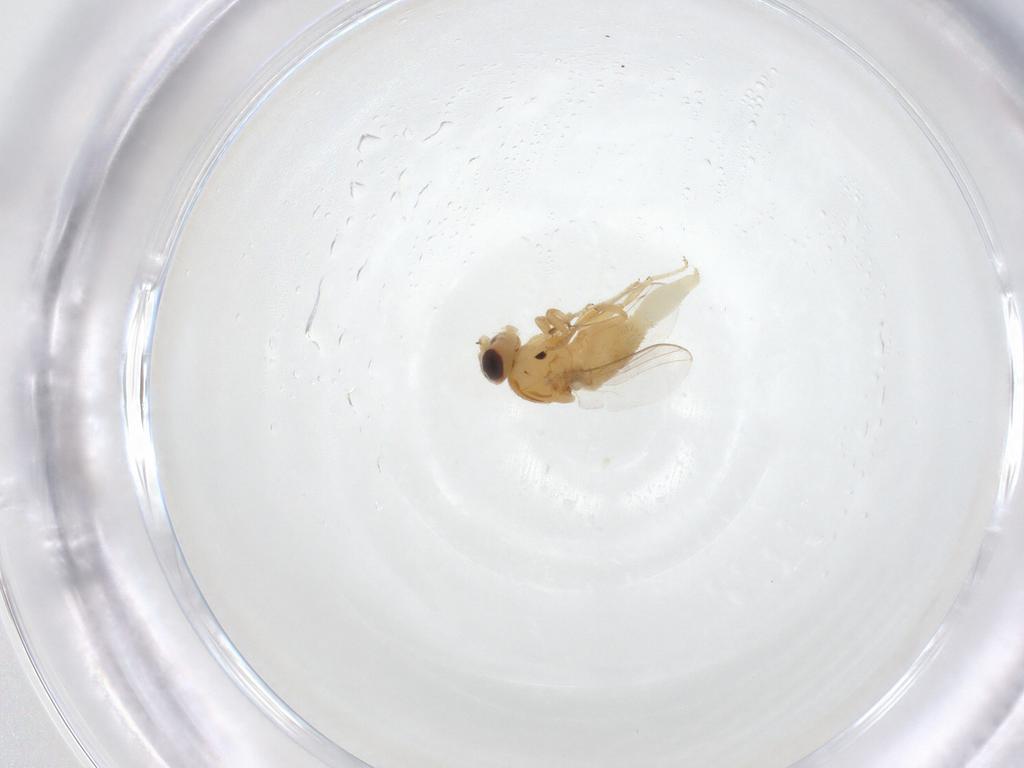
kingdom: Animalia
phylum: Arthropoda
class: Insecta
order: Diptera
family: Chloropidae
